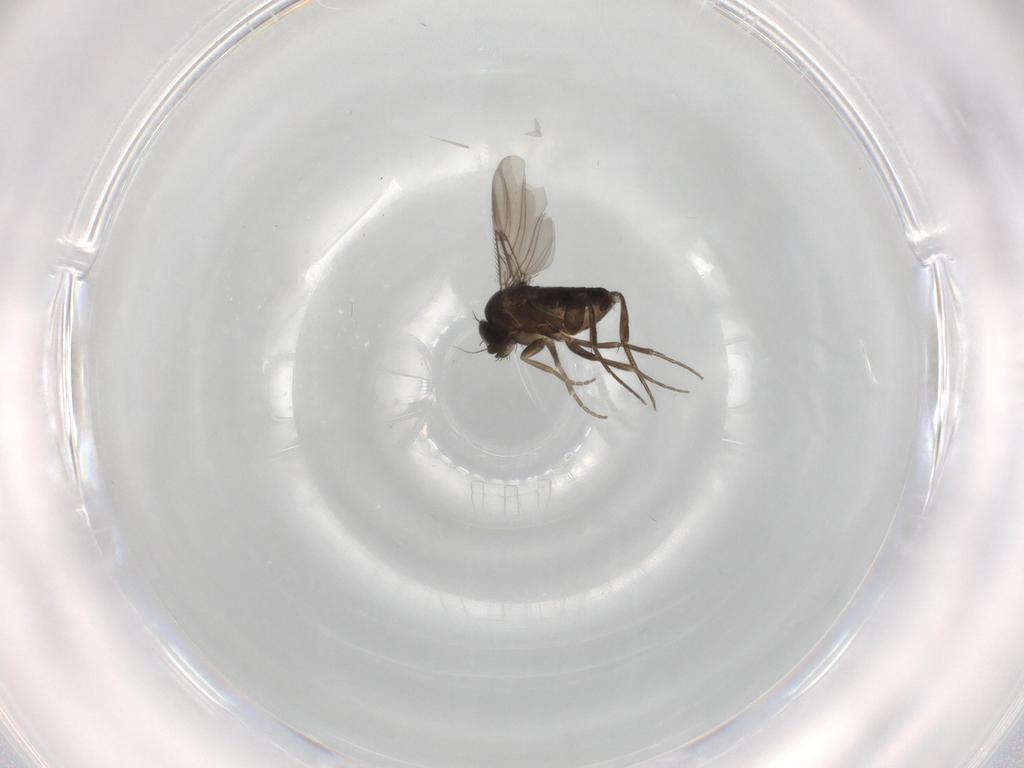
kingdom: Animalia
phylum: Arthropoda
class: Insecta
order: Diptera
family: Phoridae
